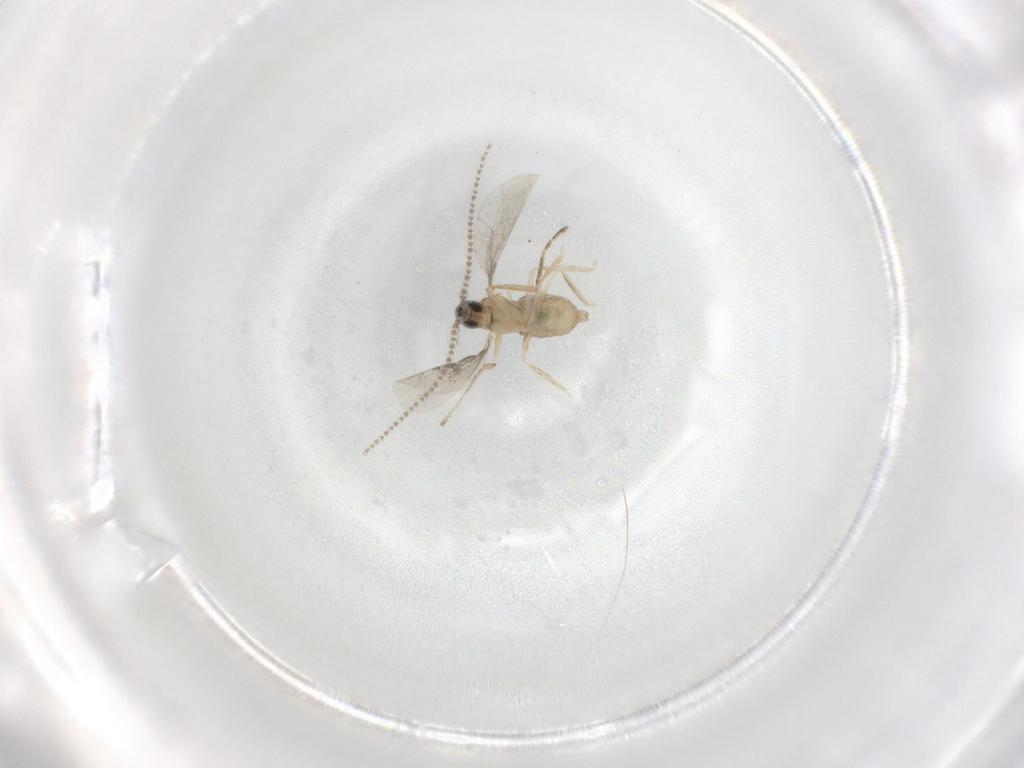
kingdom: Animalia
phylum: Arthropoda
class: Insecta
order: Diptera
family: Cecidomyiidae
